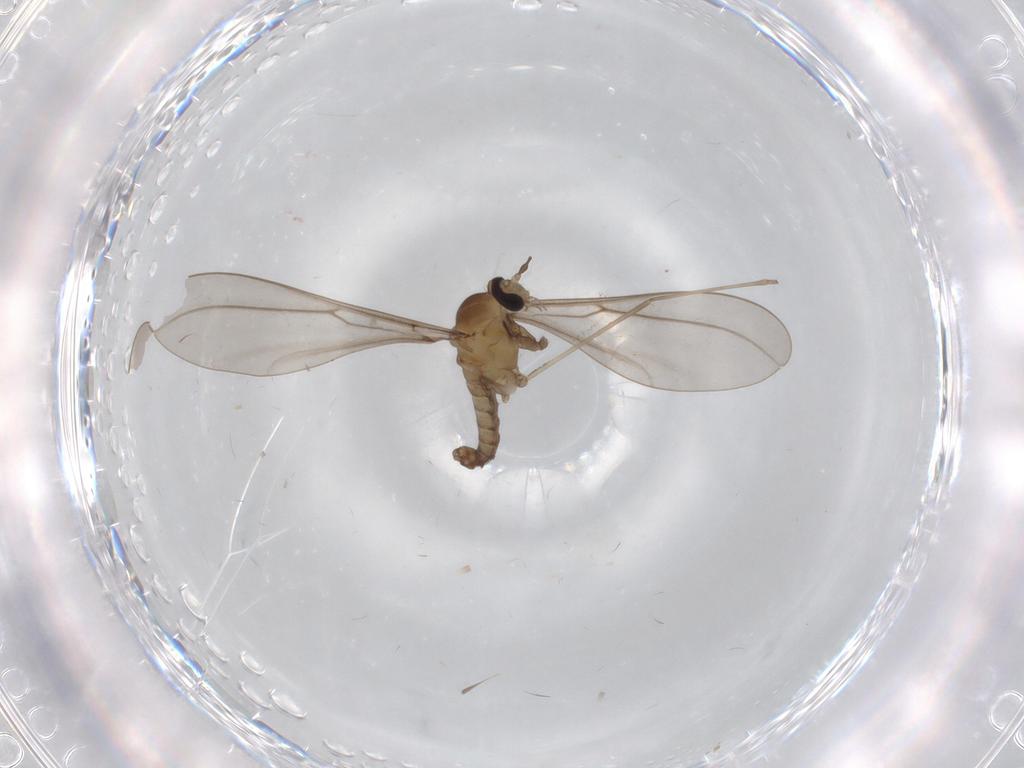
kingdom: Animalia
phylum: Arthropoda
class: Insecta
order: Diptera
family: Cecidomyiidae
